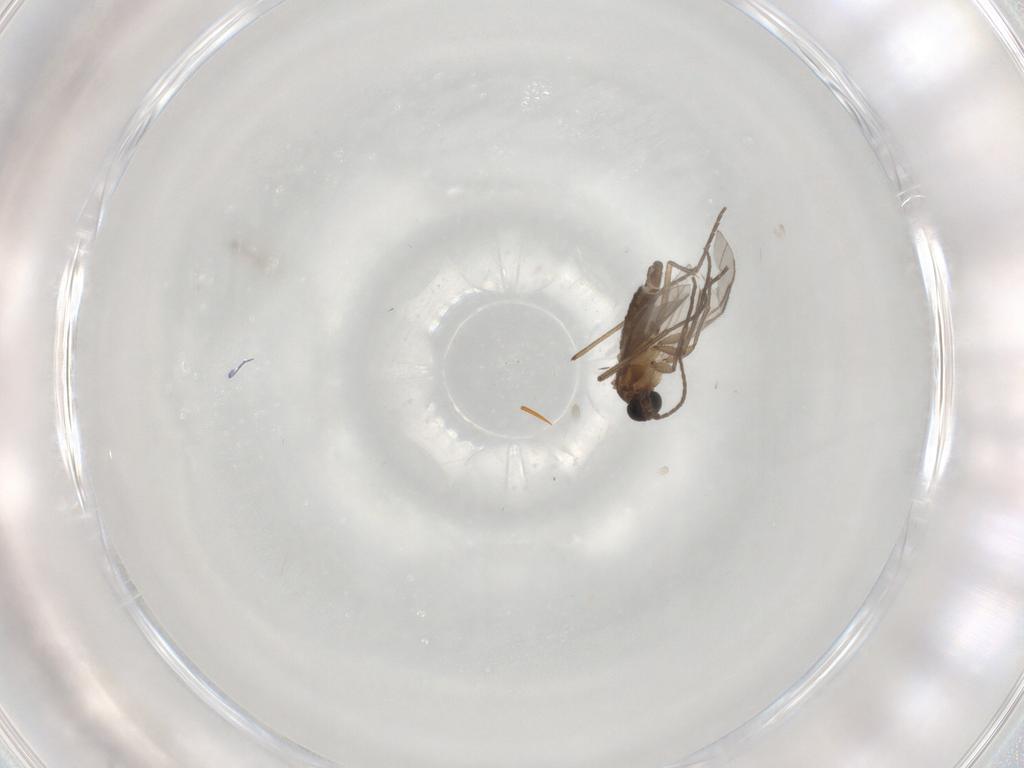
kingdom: Animalia
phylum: Arthropoda
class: Insecta
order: Diptera
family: Sciaridae
